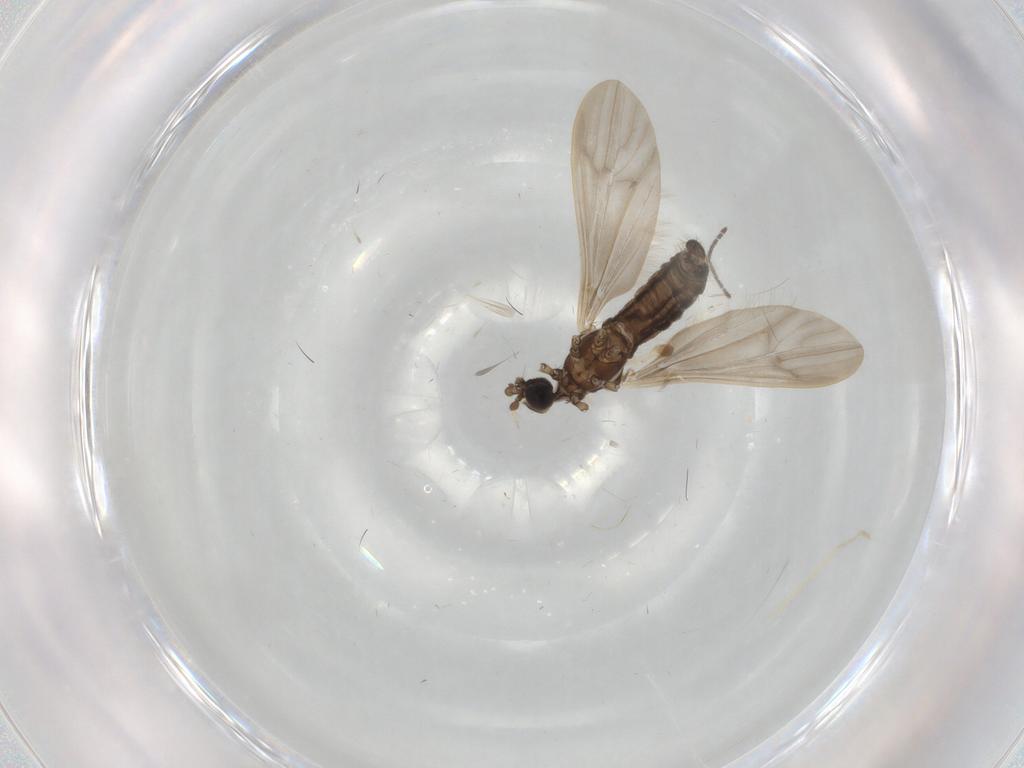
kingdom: Animalia
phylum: Arthropoda
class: Insecta
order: Diptera
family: Limoniidae
